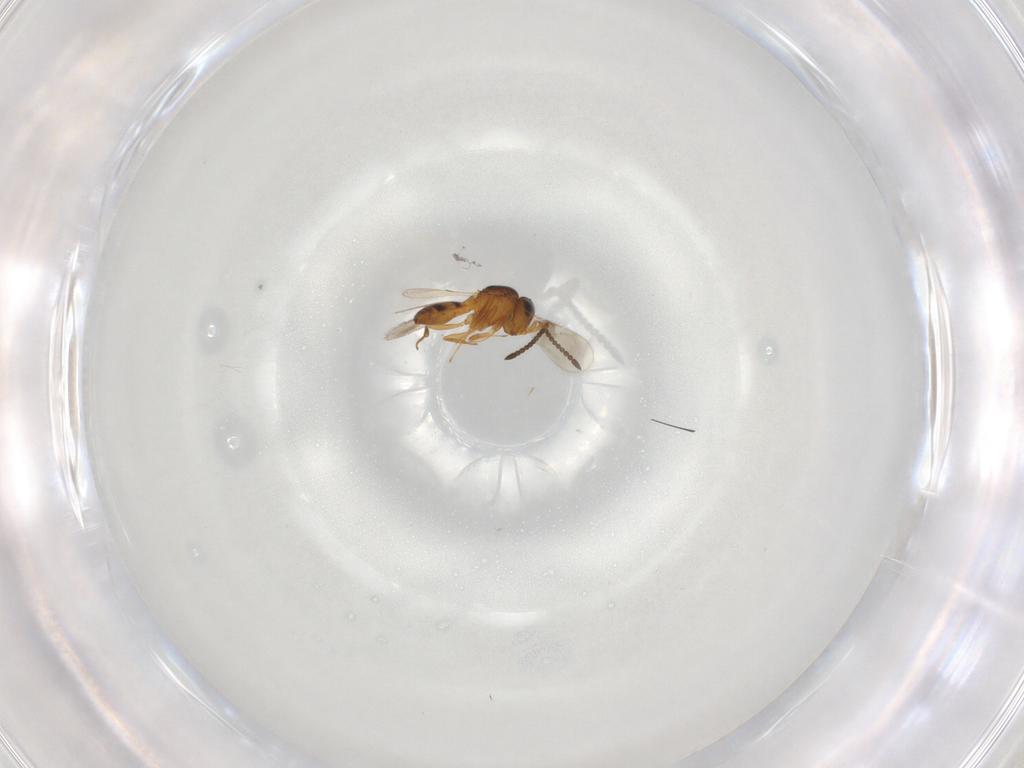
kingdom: Animalia
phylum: Arthropoda
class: Insecta
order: Hymenoptera
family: Scelionidae
